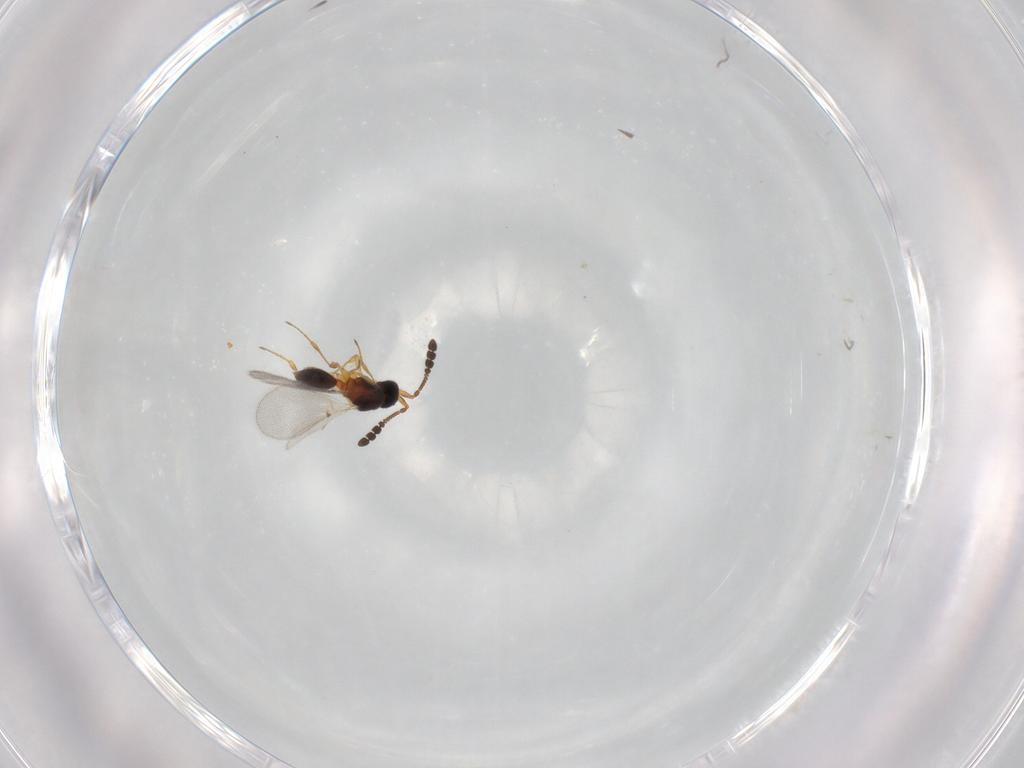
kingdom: Animalia
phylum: Arthropoda
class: Insecta
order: Hymenoptera
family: Diapriidae
